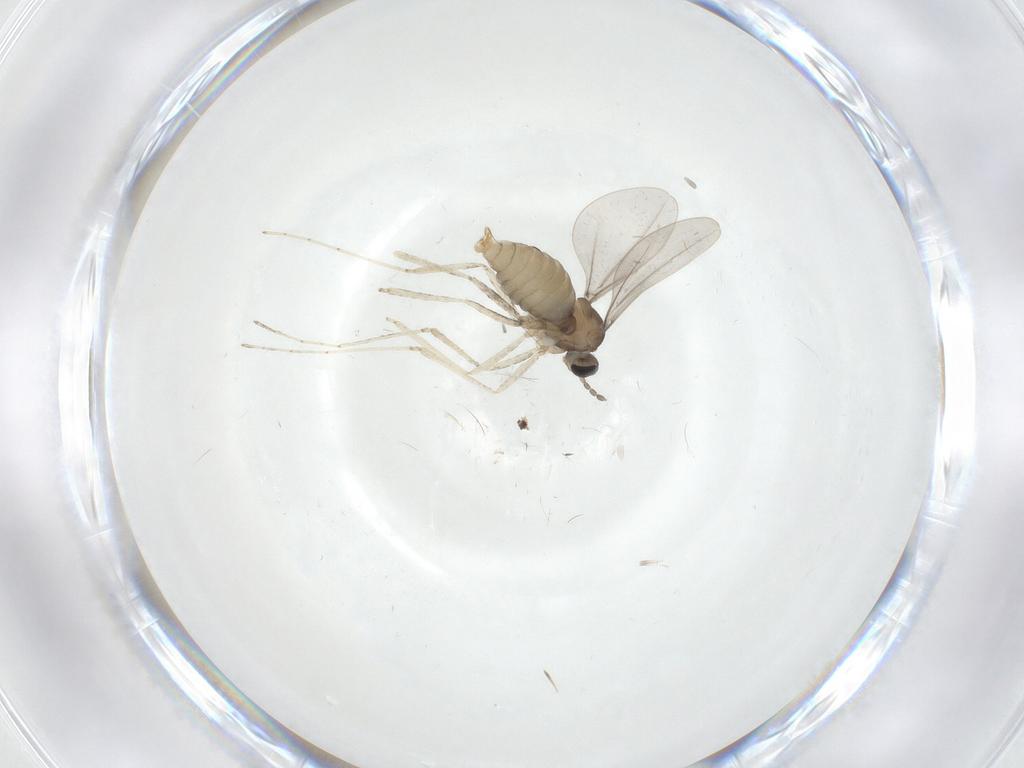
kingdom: Animalia
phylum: Arthropoda
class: Insecta
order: Diptera
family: Cecidomyiidae
